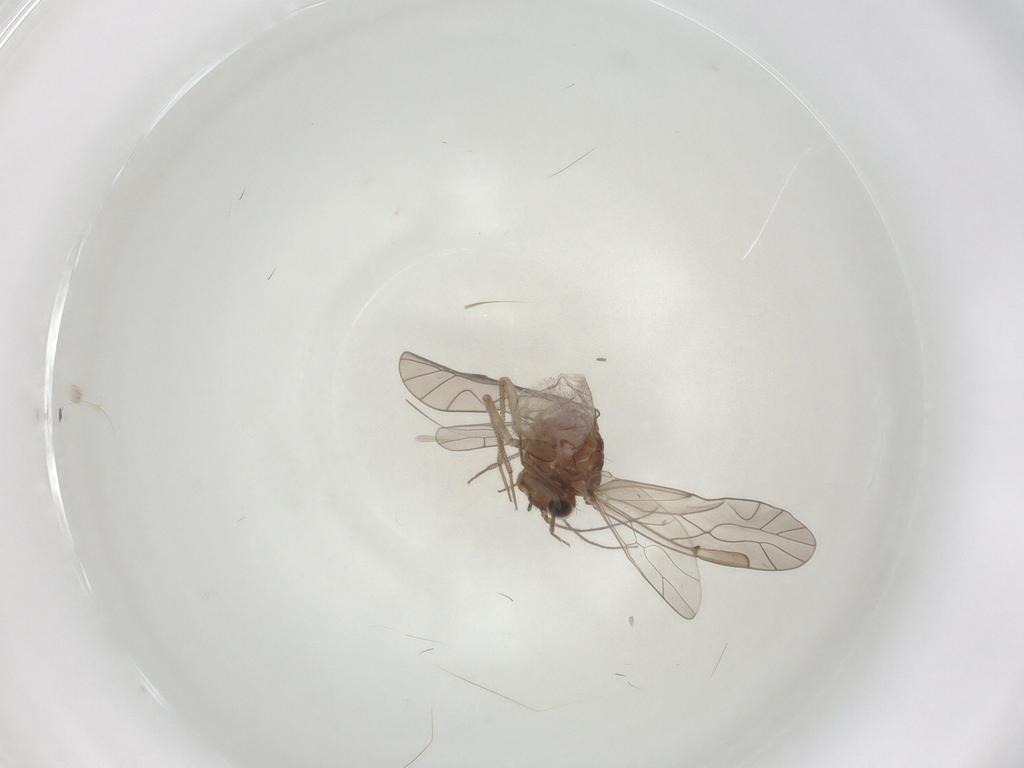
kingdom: Animalia
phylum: Arthropoda
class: Insecta
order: Psocodea
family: Lachesillidae
